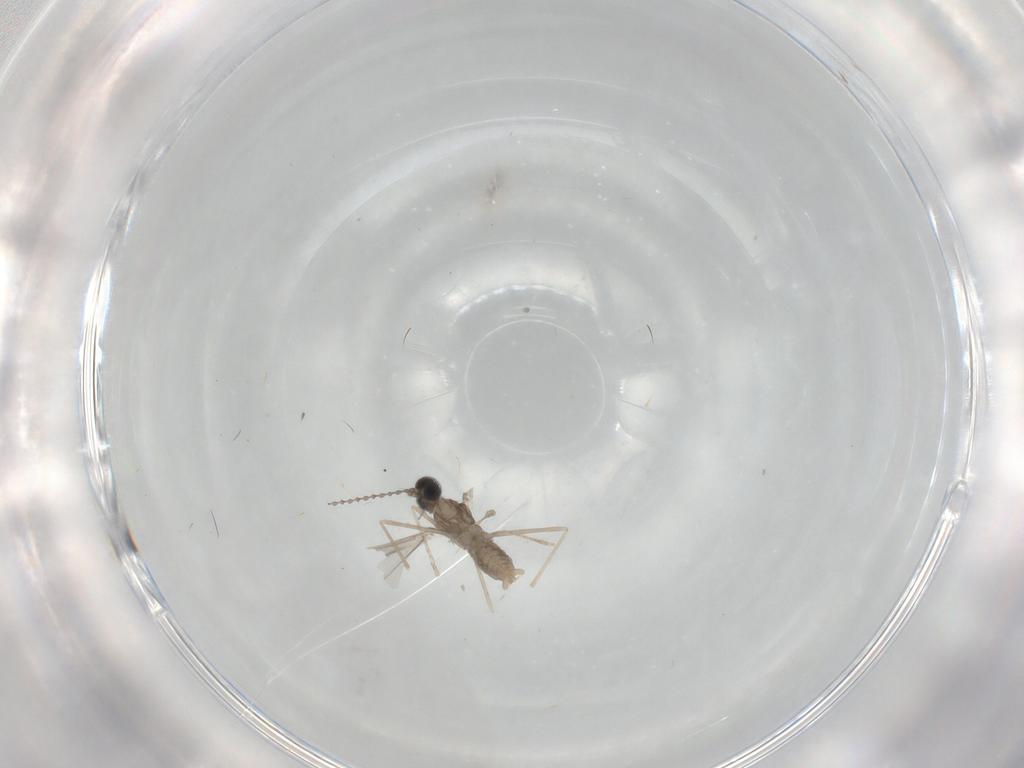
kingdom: Animalia
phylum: Arthropoda
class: Insecta
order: Diptera
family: Cecidomyiidae
